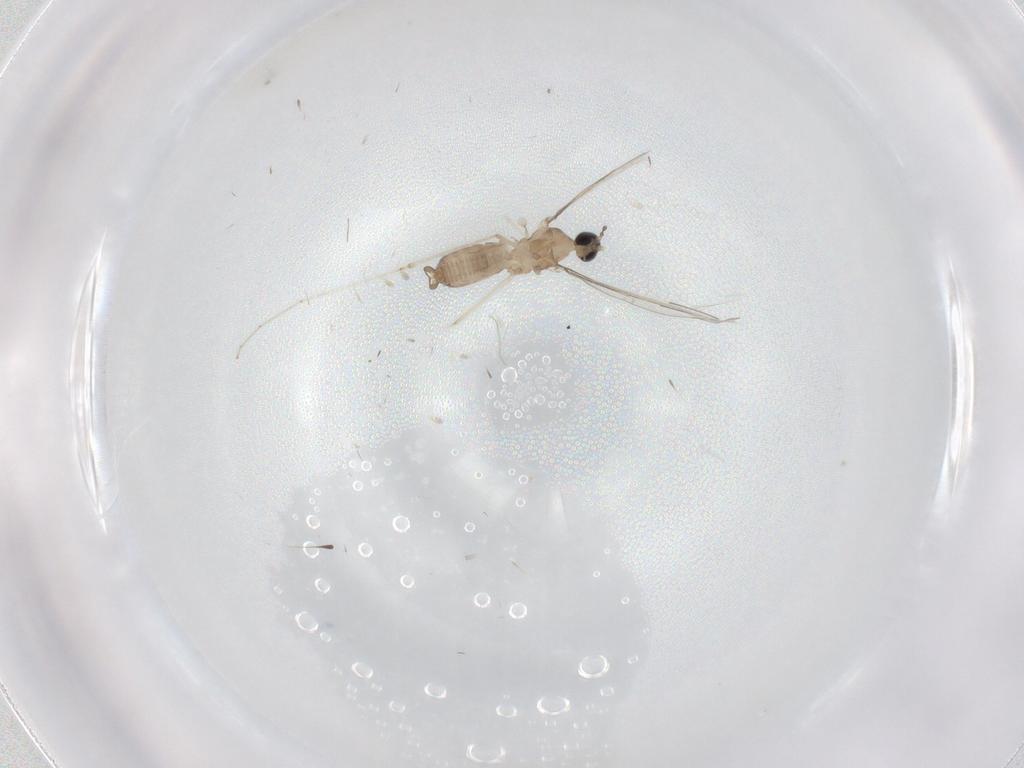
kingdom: Animalia
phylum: Arthropoda
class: Insecta
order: Diptera
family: Cecidomyiidae
